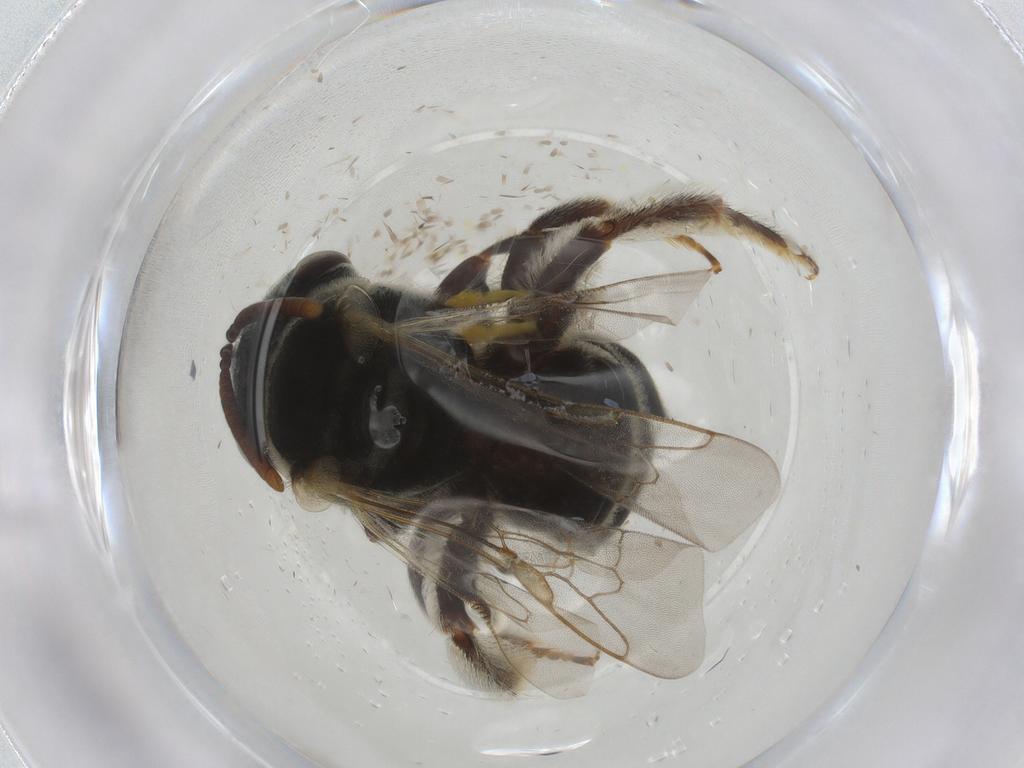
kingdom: Animalia
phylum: Arthropoda
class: Insecta
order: Hymenoptera
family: Halictidae
